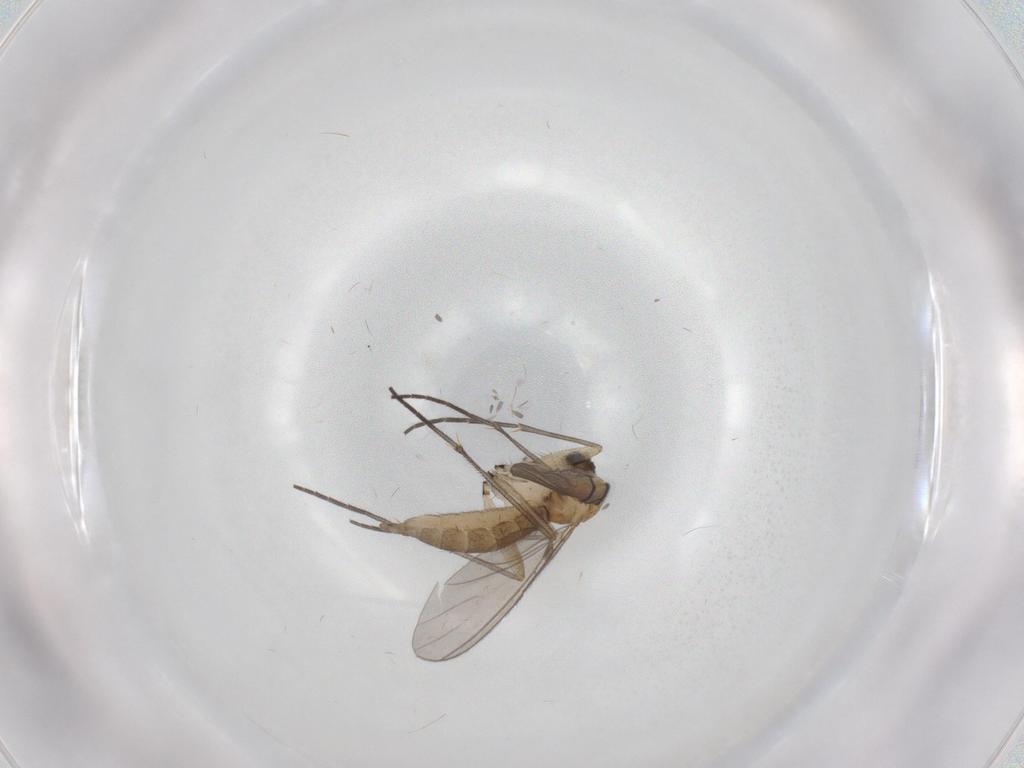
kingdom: Animalia
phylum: Arthropoda
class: Insecta
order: Diptera
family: Sciaridae
